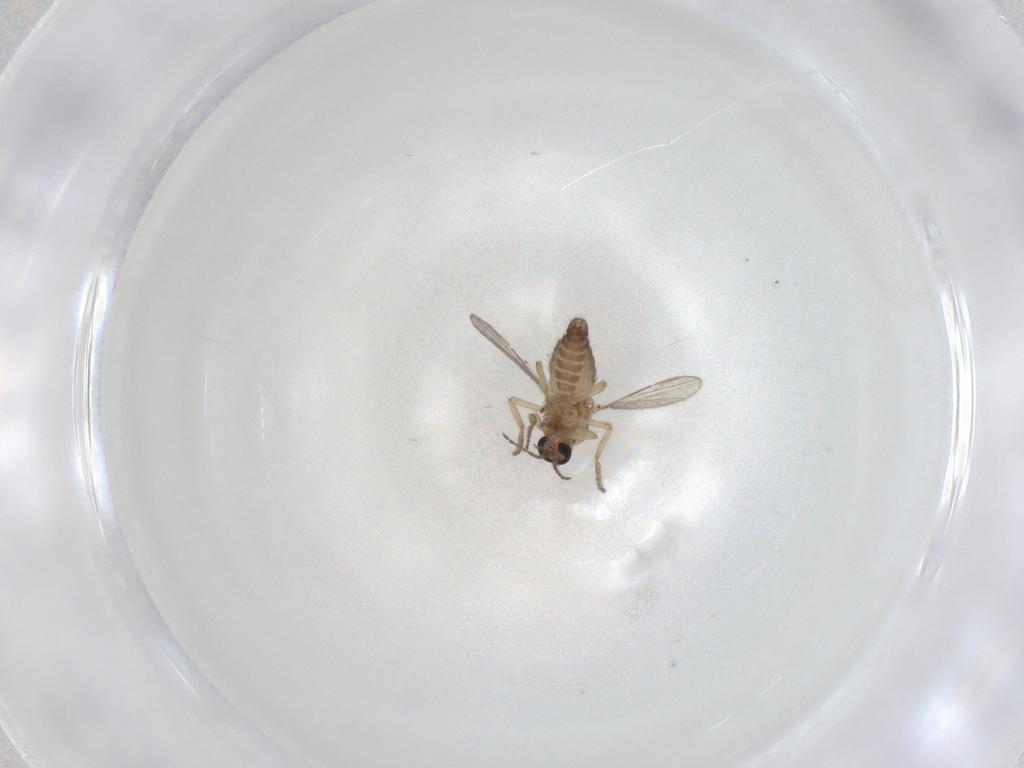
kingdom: Animalia
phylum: Arthropoda
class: Insecta
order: Diptera
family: Ceratopogonidae
